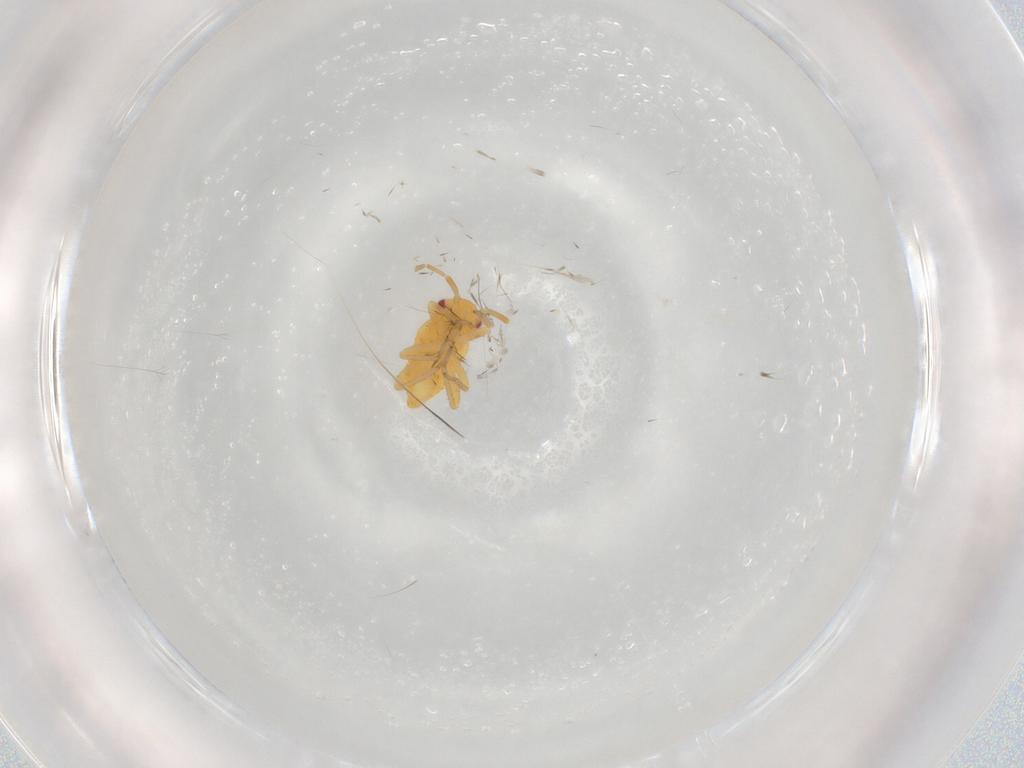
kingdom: Animalia
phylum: Arthropoda
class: Insecta
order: Hemiptera
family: Miridae
